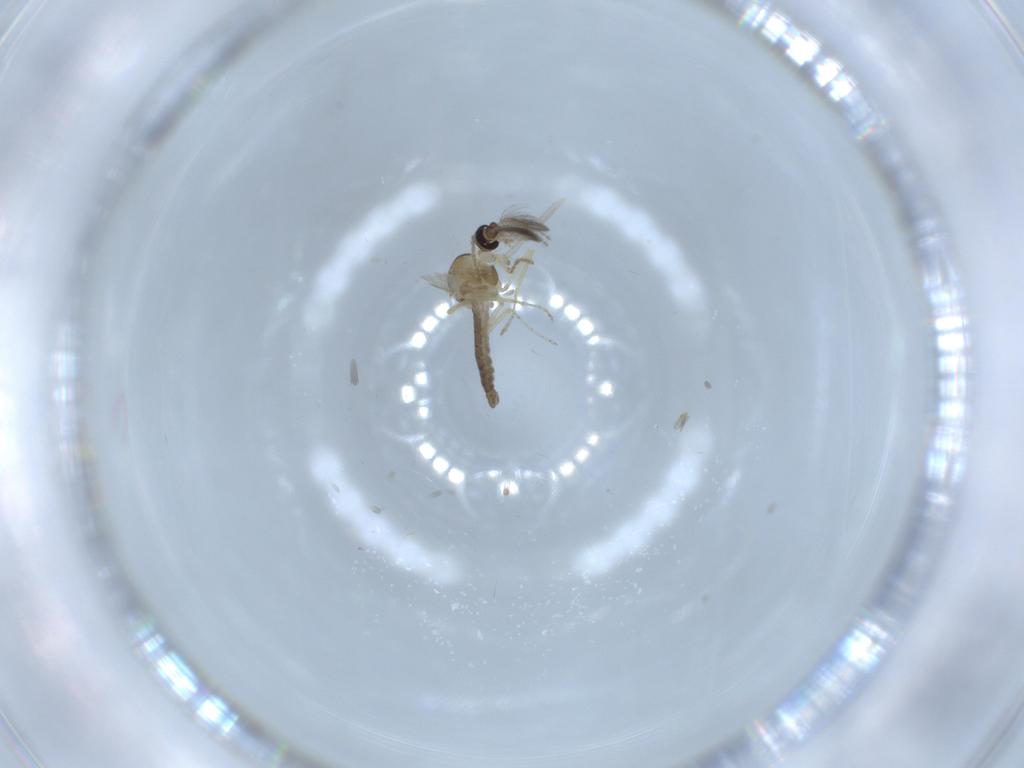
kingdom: Animalia
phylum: Arthropoda
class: Insecta
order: Diptera
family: Ceratopogonidae
